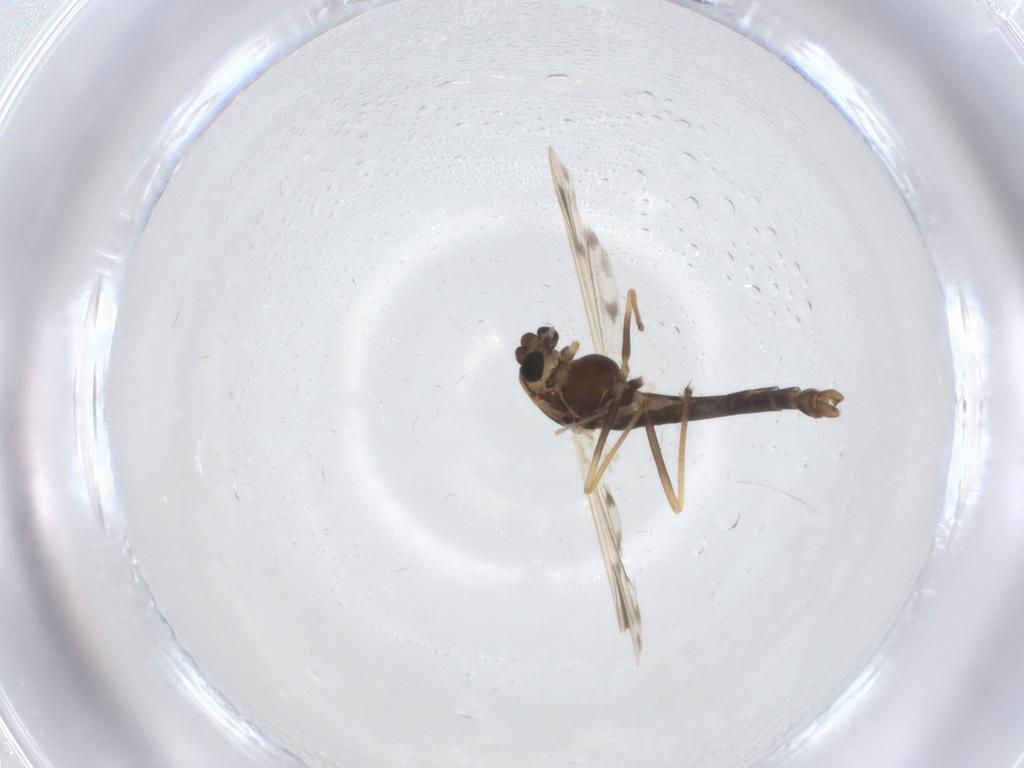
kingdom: Animalia
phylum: Arthropoda
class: Insecta
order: Diptera
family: Chironomidae
